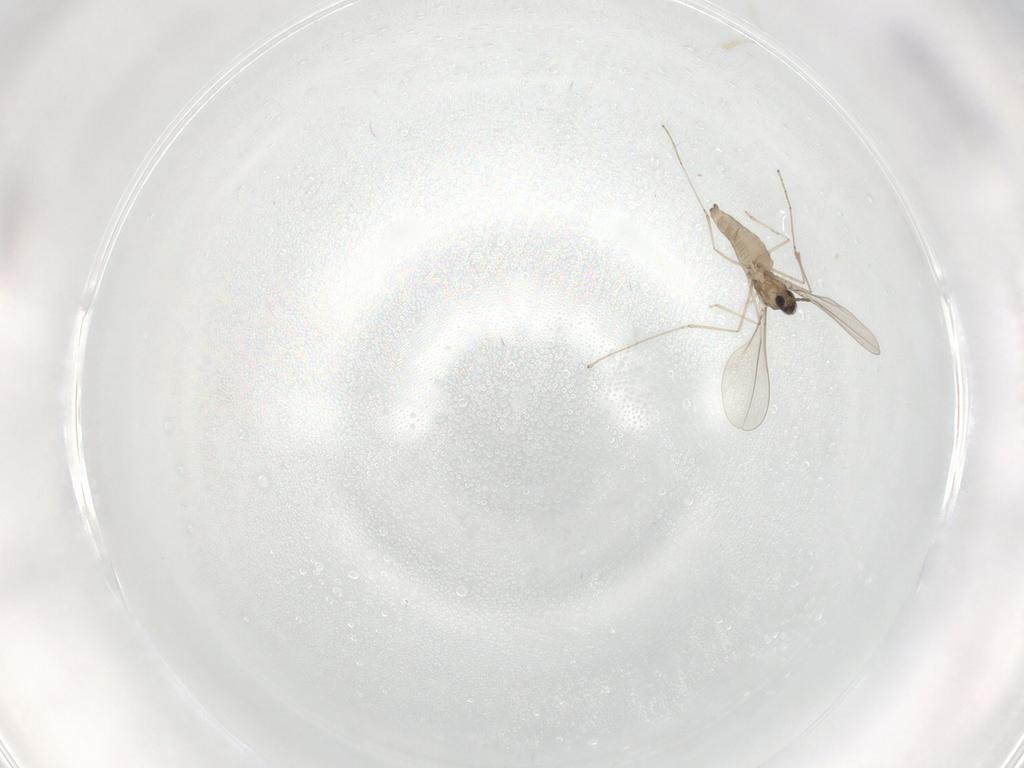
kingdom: Animalia
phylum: Arthropoda
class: Insecta
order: Diptera
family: Cecidomyiidae
